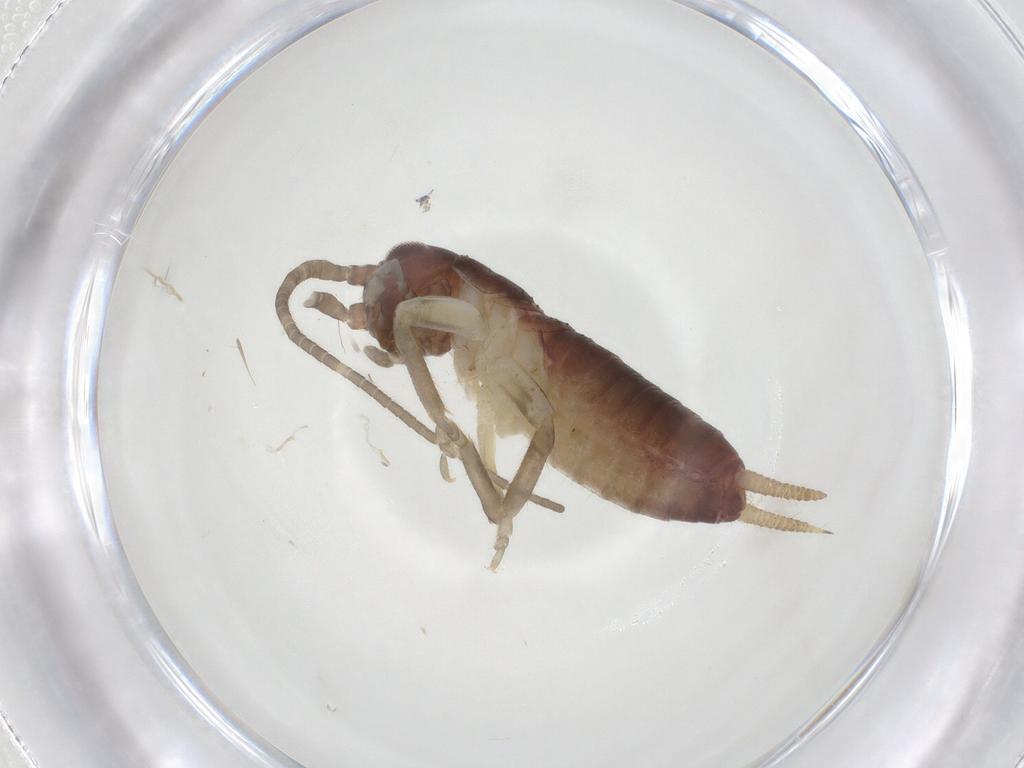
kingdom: Animalia
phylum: Arthropoda
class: Insecta
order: Orthoptera
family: Gryllidae
